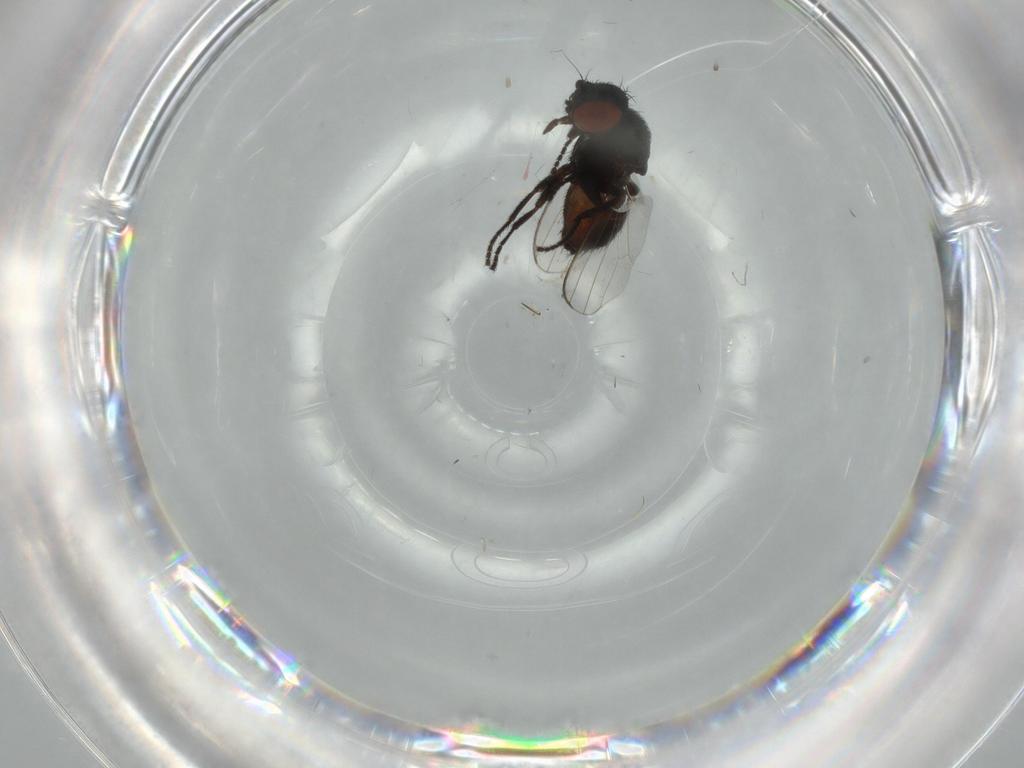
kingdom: Animalia
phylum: Arthropoda
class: Insecta
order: Diptera
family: Milichiidae
